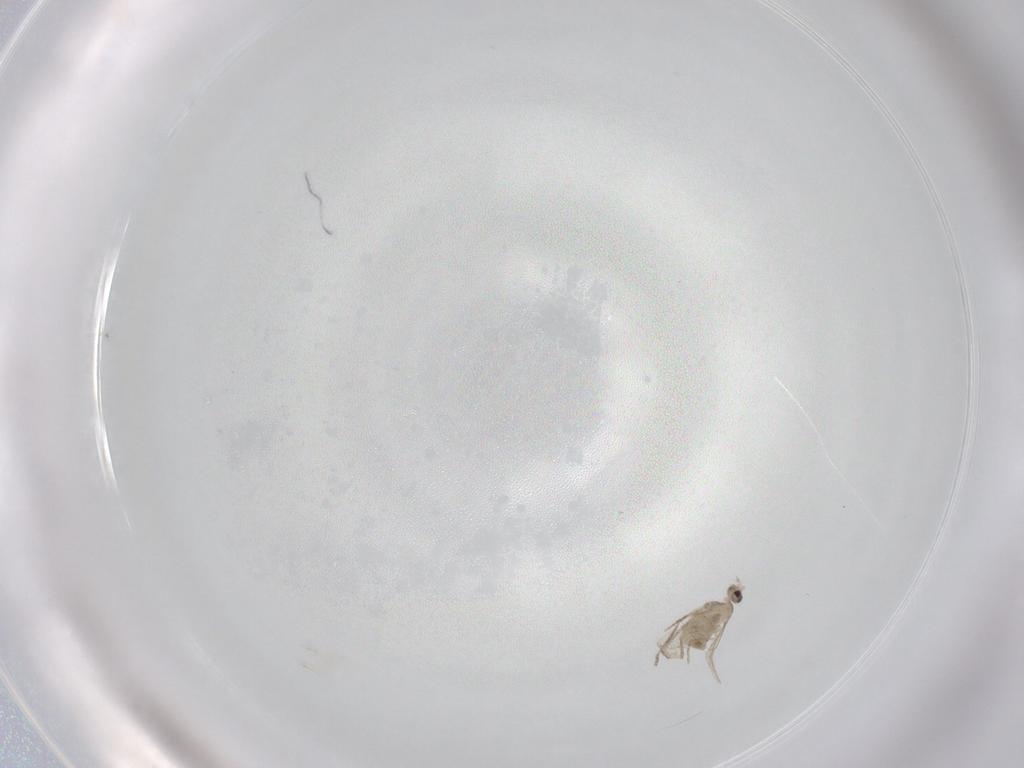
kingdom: Animalia
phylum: Arthropoda
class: Insecta
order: Diptera
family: Cecidomyiidae
